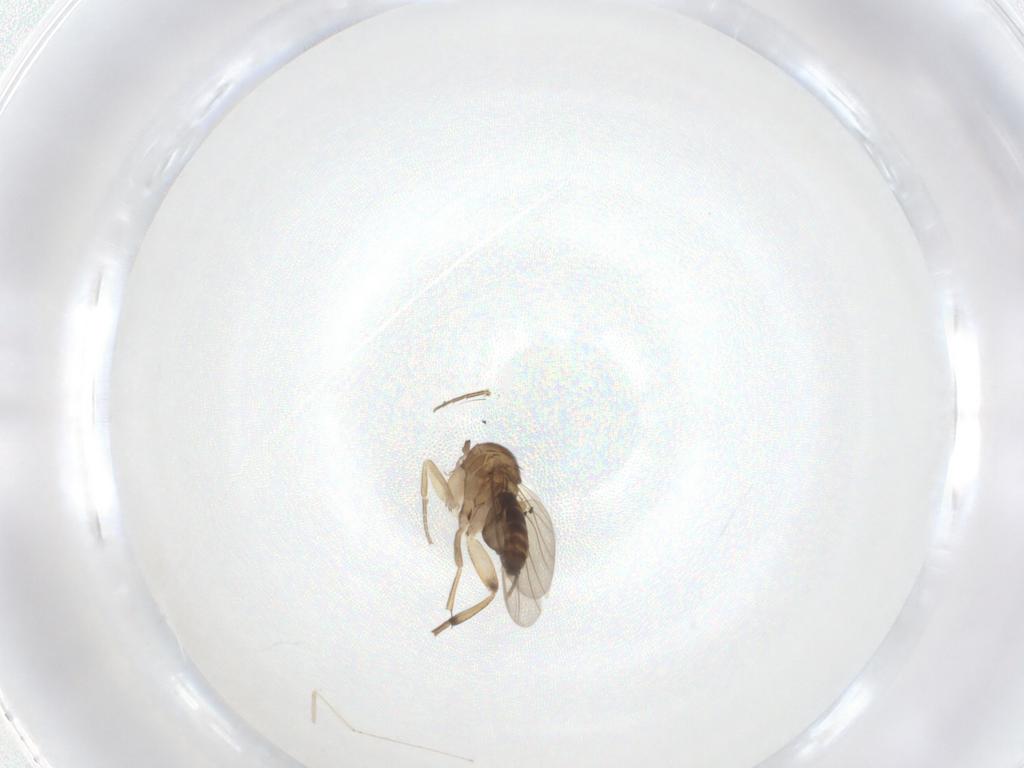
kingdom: Animalia
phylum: Arthropoda
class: Insecta
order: Diptera
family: Phoridae
